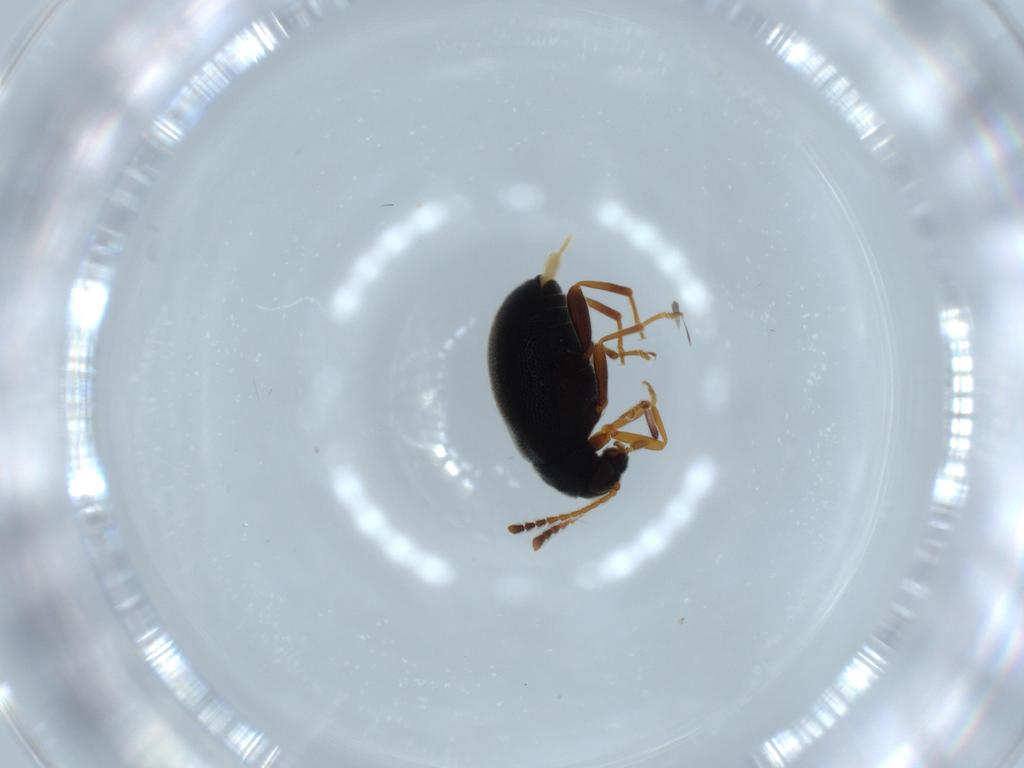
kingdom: Animalia
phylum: Arthropoda
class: Insecta
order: Coleoptera
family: Aderidae
